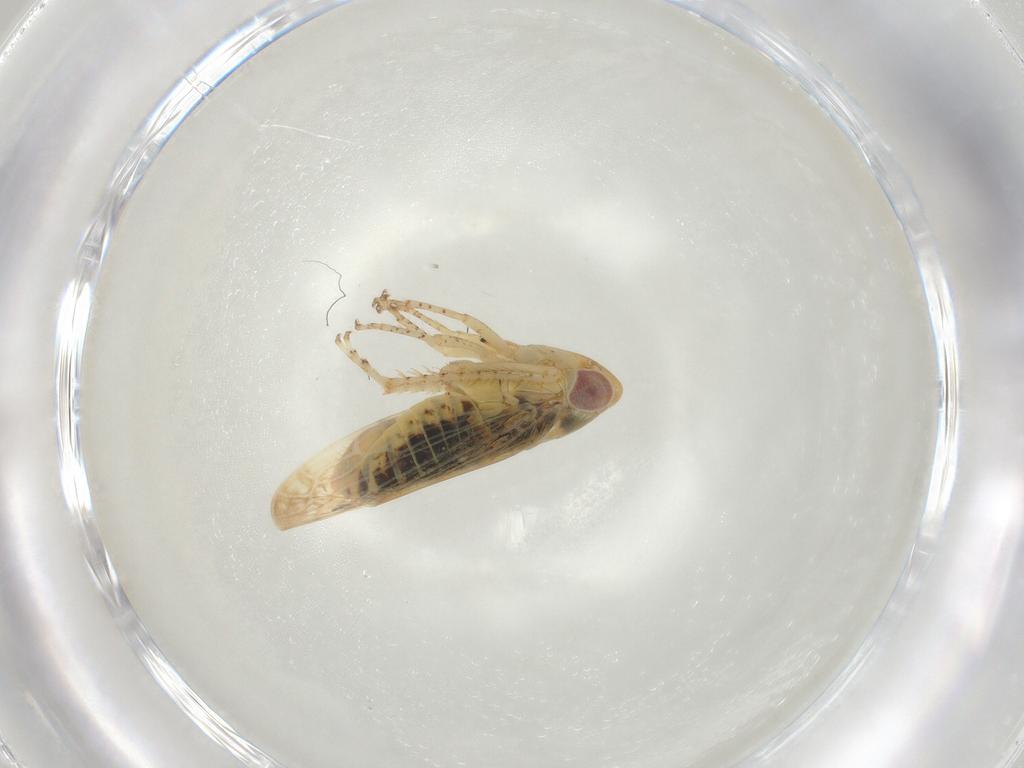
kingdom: Animalia
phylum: Arthropoda
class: Insecta
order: Hemiptera
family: Cicadellidae
